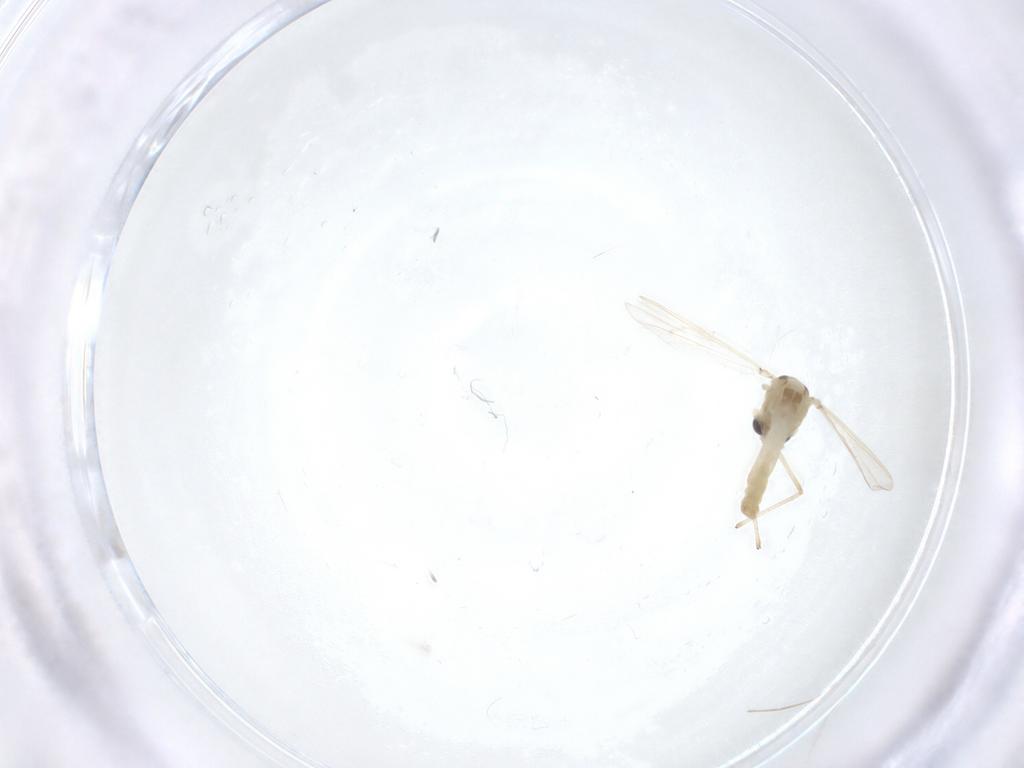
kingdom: Animalia
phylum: Arthropoda
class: Insecta
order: Diptera
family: Chironomidae
